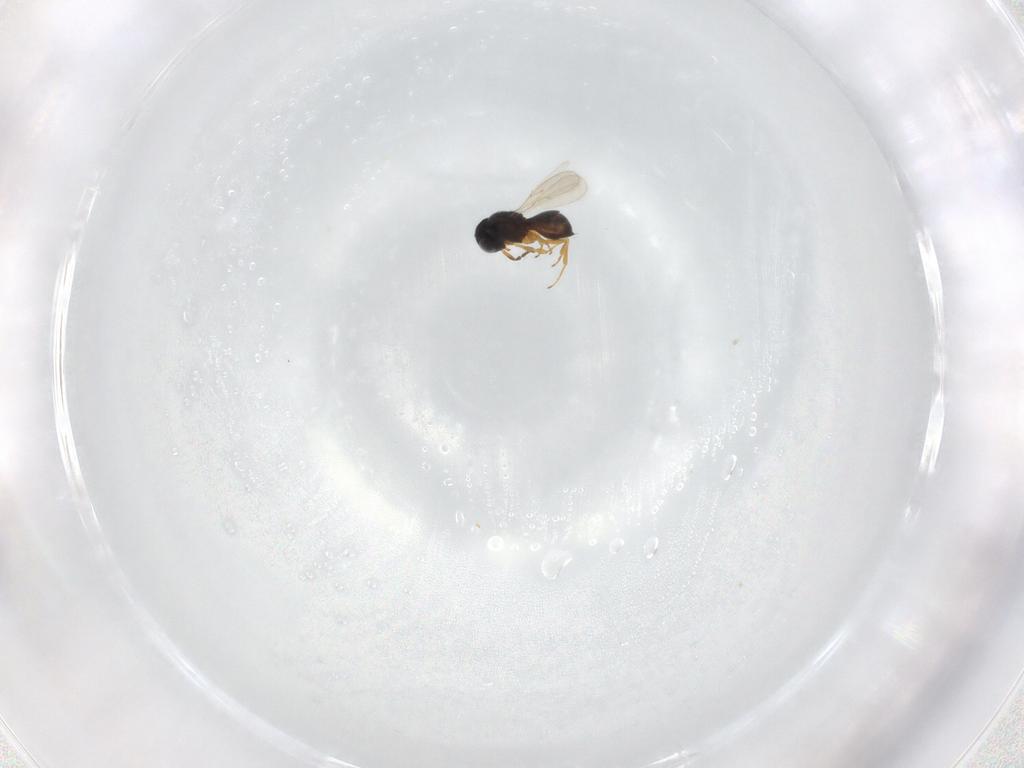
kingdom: Animalia
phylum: Arthropoda
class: Insecta
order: Hymenoptera
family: Scelionidae
